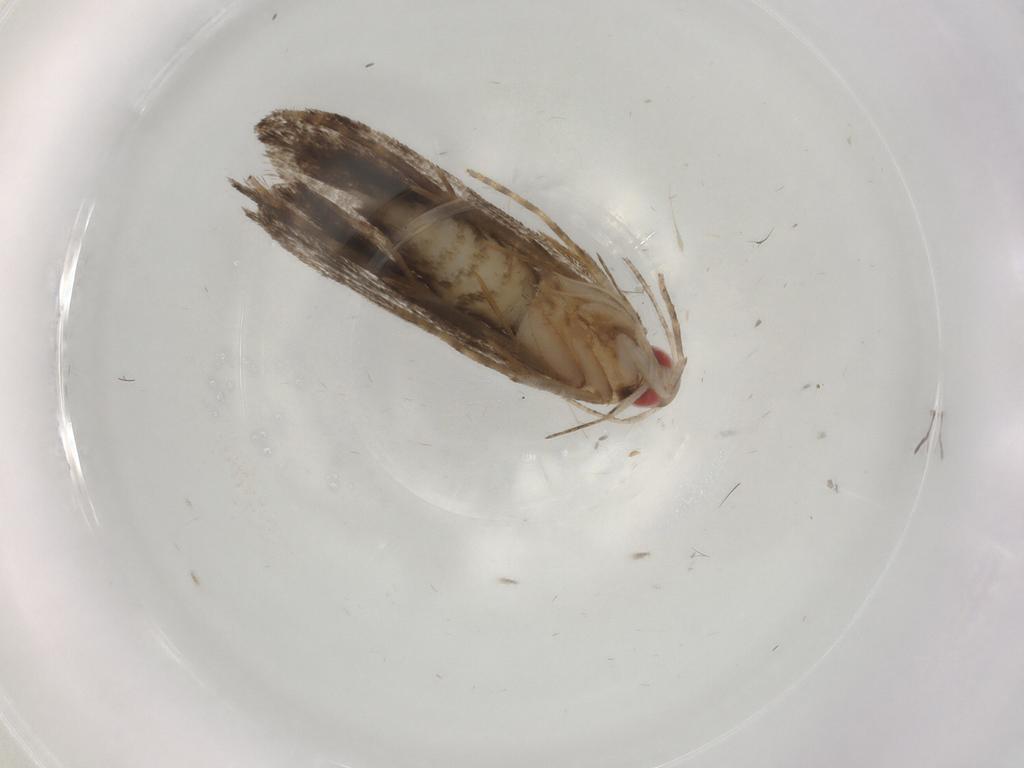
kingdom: Animalia
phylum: Arthropoda
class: Insecta
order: Lepidoptera
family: Gelechiidae
